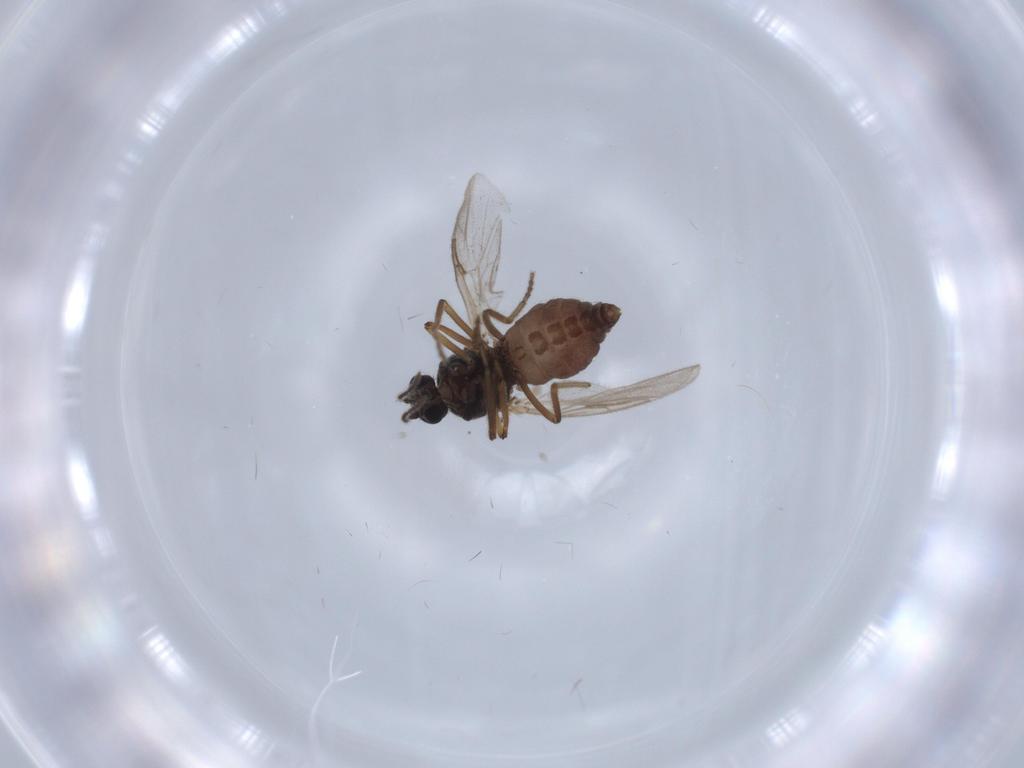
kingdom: Animalia
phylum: Arthropoda
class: Insecta
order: Diptera
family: Ceratopogonidae
